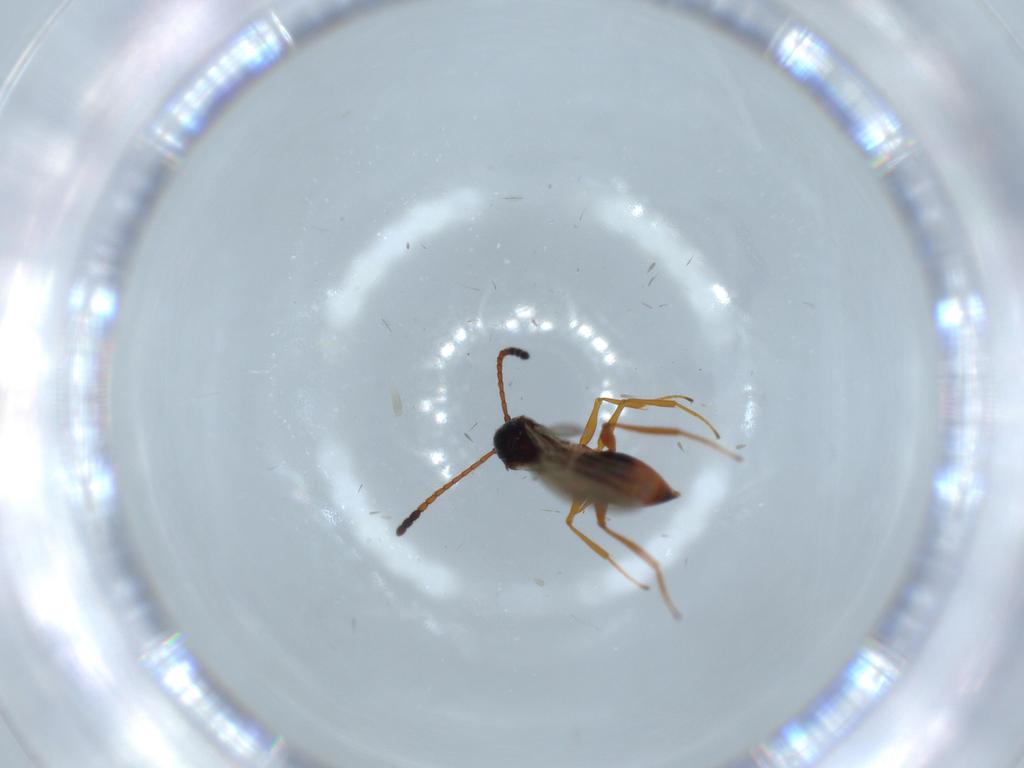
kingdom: Animalia
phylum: Arthropoda
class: Insecta
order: Hymenoptera
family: Figitidae
